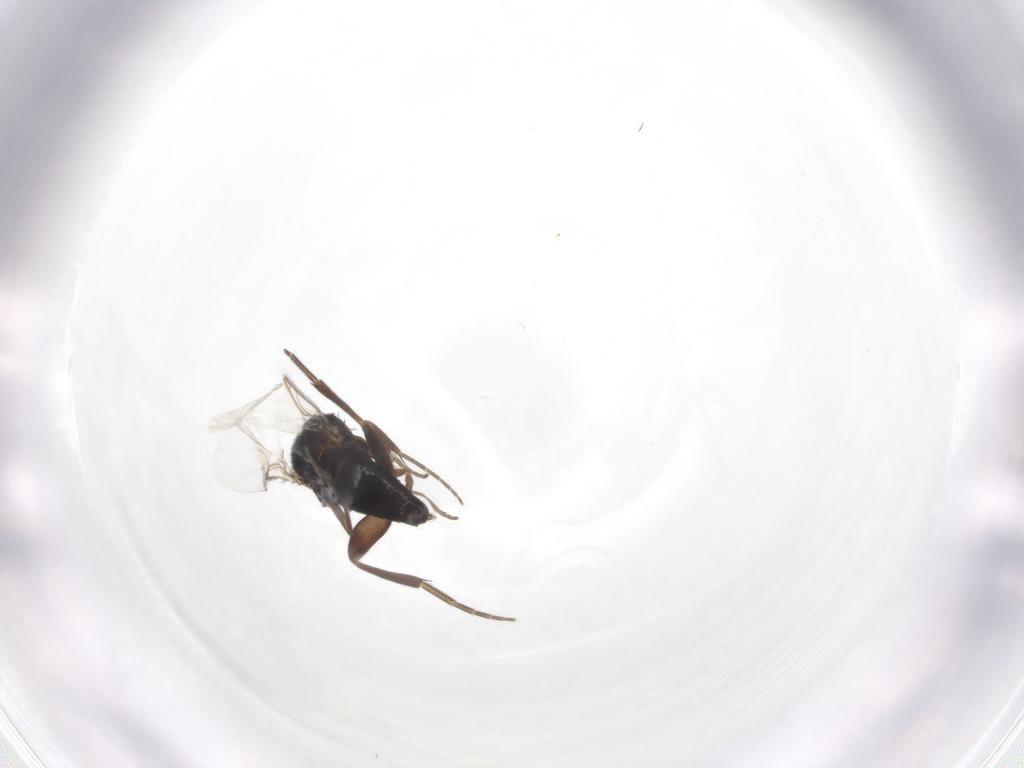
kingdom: Animalia
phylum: Arthropoda
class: Insecta
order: Diptera
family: Phoridae
